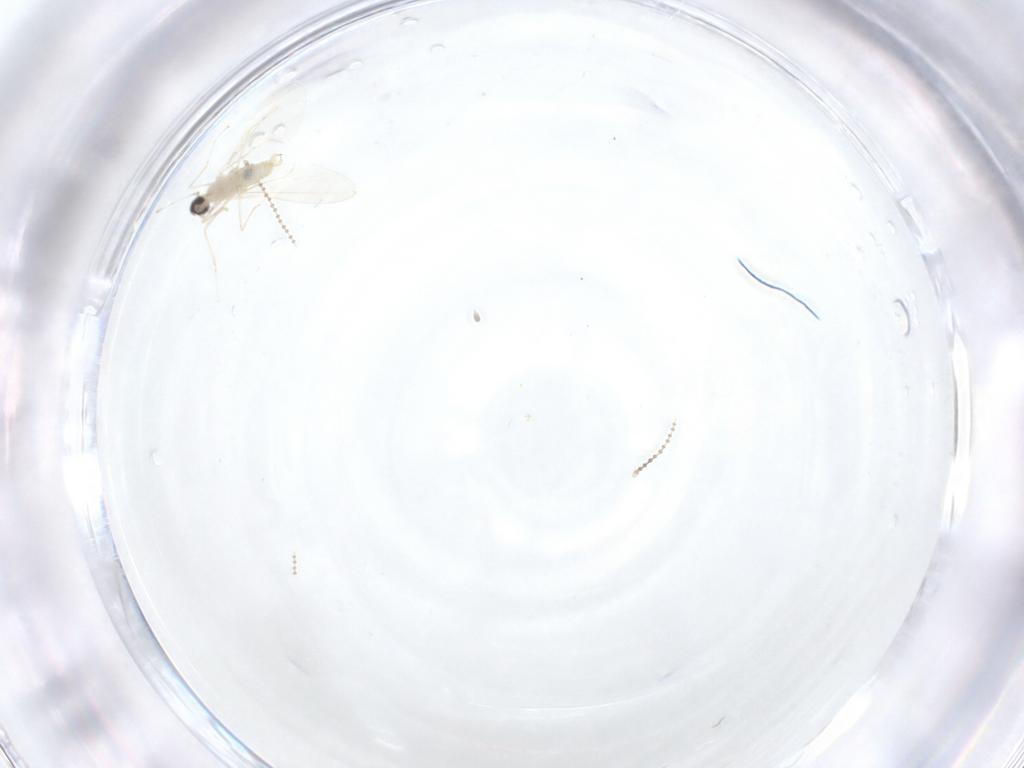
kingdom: Animalia
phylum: Arthropoda
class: Insecta
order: Diptera
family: Cecidomyiidae
